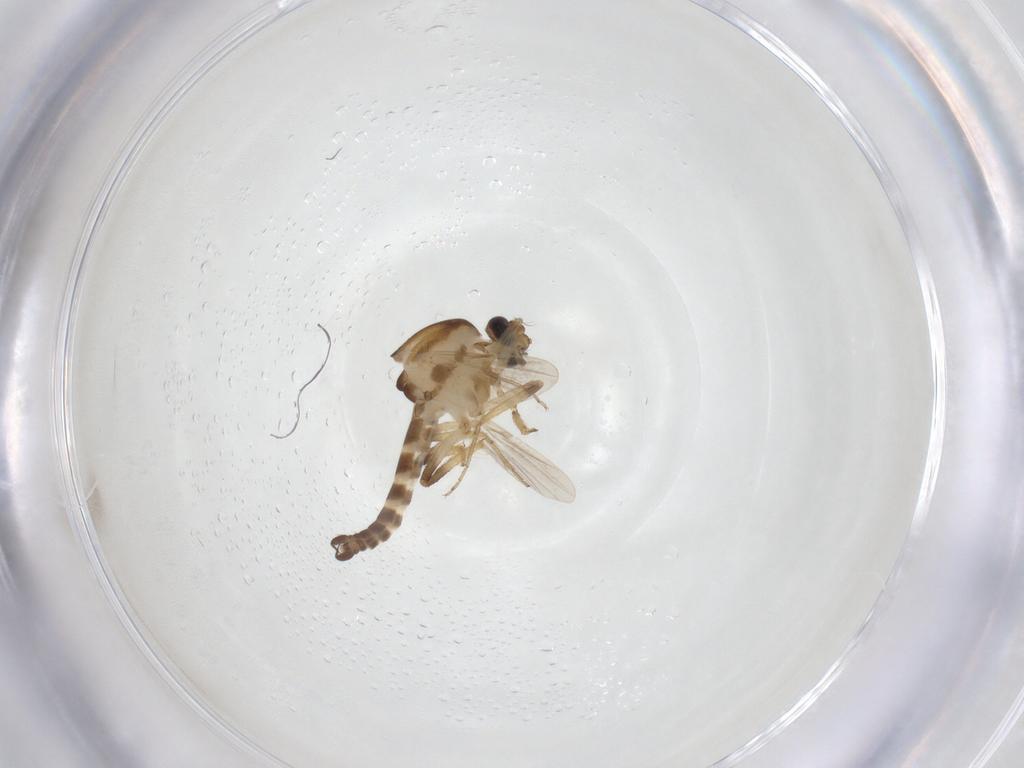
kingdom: Animalia
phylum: Arthropoda
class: Insecta
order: Diptera
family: Ceratopogonidae
